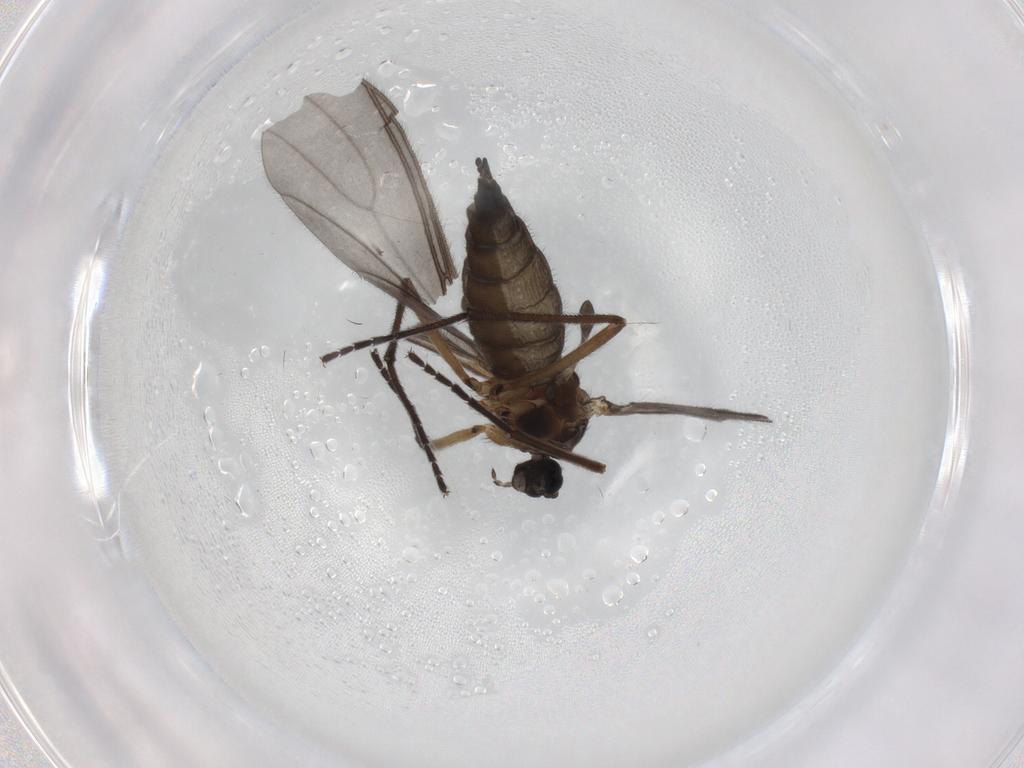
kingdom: Animalia
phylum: Arthropoda
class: Insecta
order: Diptera
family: Sciaridae
